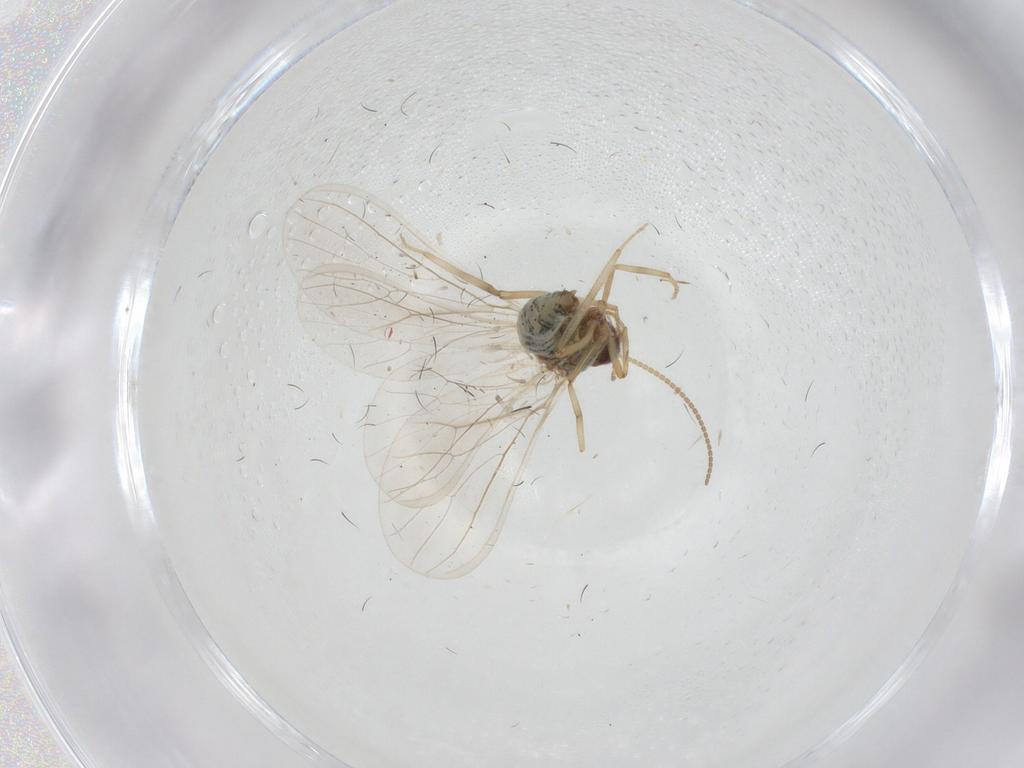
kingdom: Animalia
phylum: Arthropoda
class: Insecta
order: Neuroptera
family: Coniopterygidae
